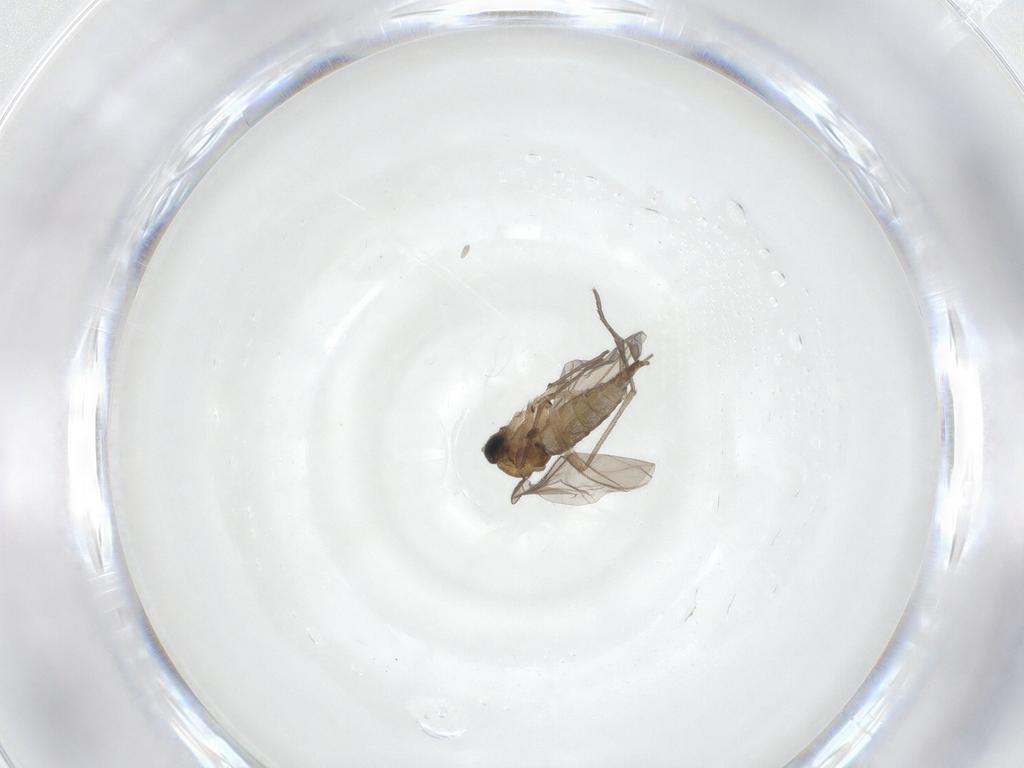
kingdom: Animalia
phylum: Arthropoda
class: Insecta
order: Diptera
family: Sciaridae
